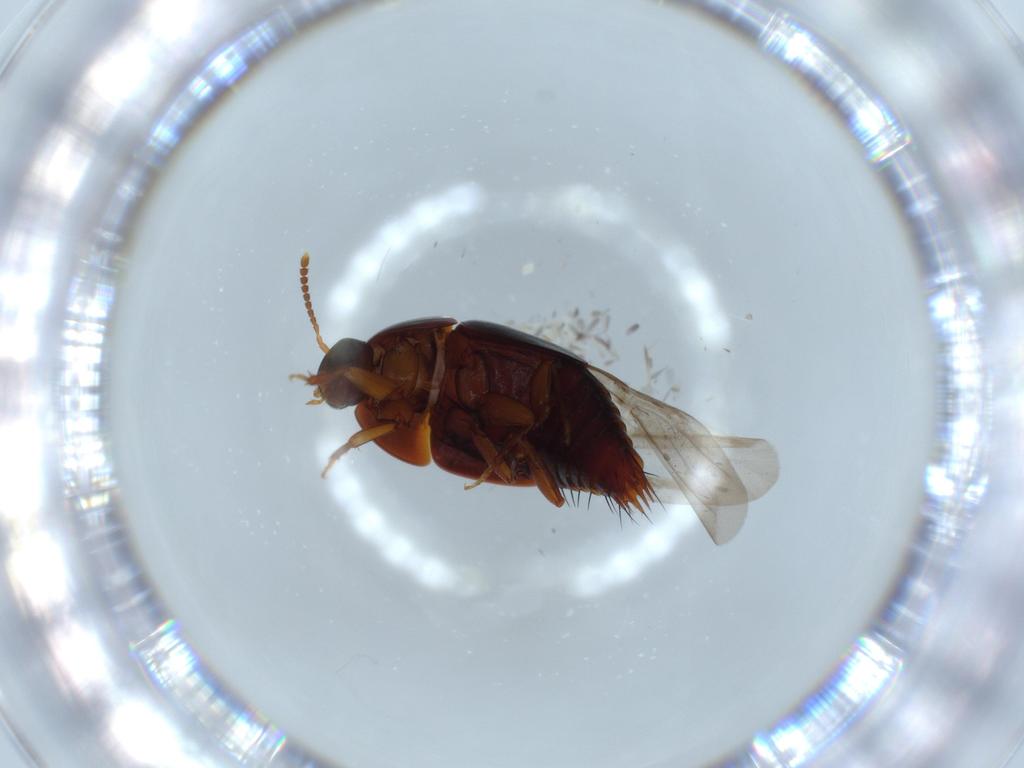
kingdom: Animalia
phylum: Arthropoda
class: Insecta
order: Coleoptera
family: Staphylinidae
